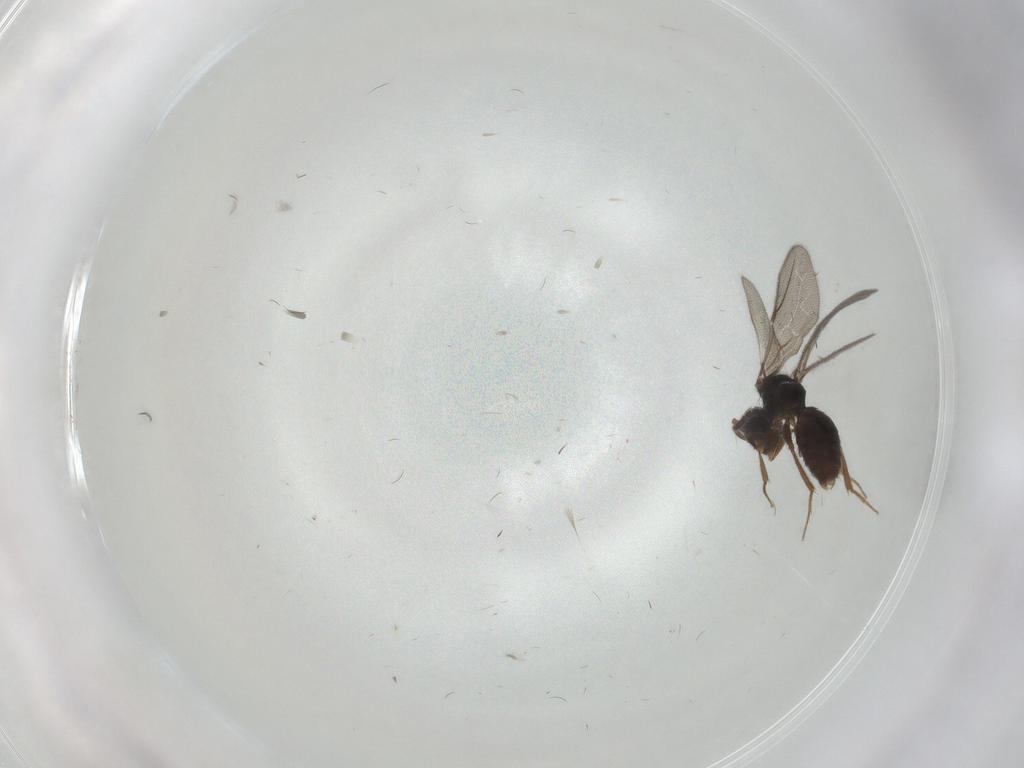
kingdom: Animalia
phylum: Arthropoda
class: Insecta
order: Hymenoptera
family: Bethylidae
